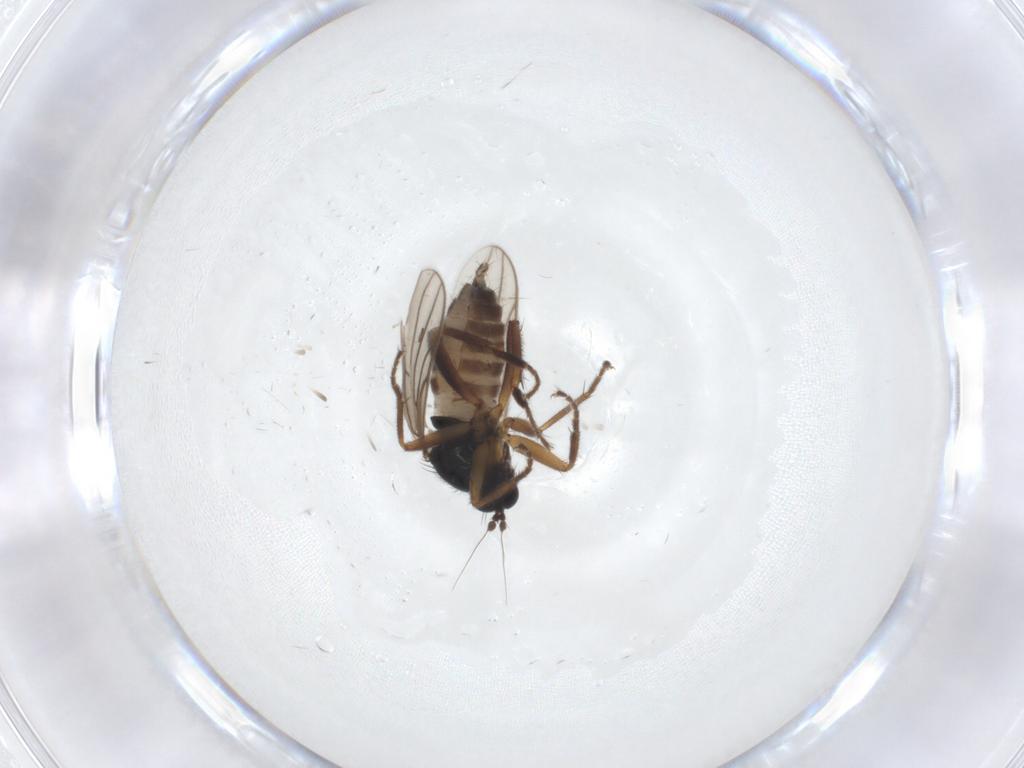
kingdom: Animalia
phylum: Arthropoda
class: Insecta
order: Diptera
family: Hybotidae
